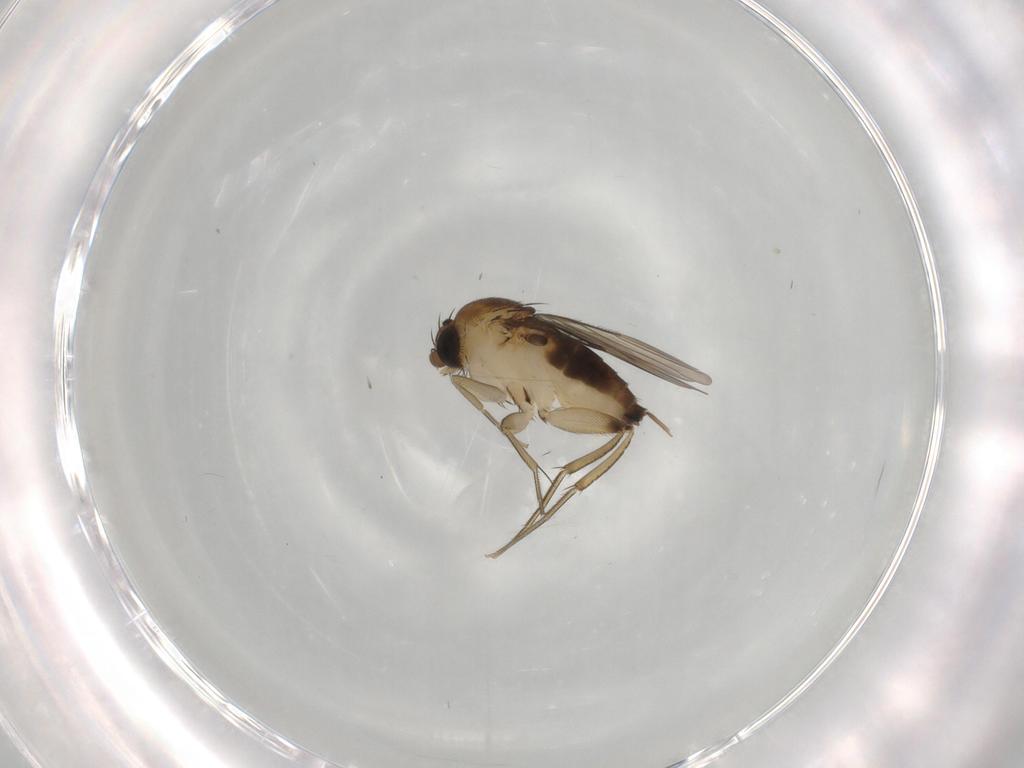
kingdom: Animalia
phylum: Arthropoda
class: Insecta
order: Diptera
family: Phoridae
